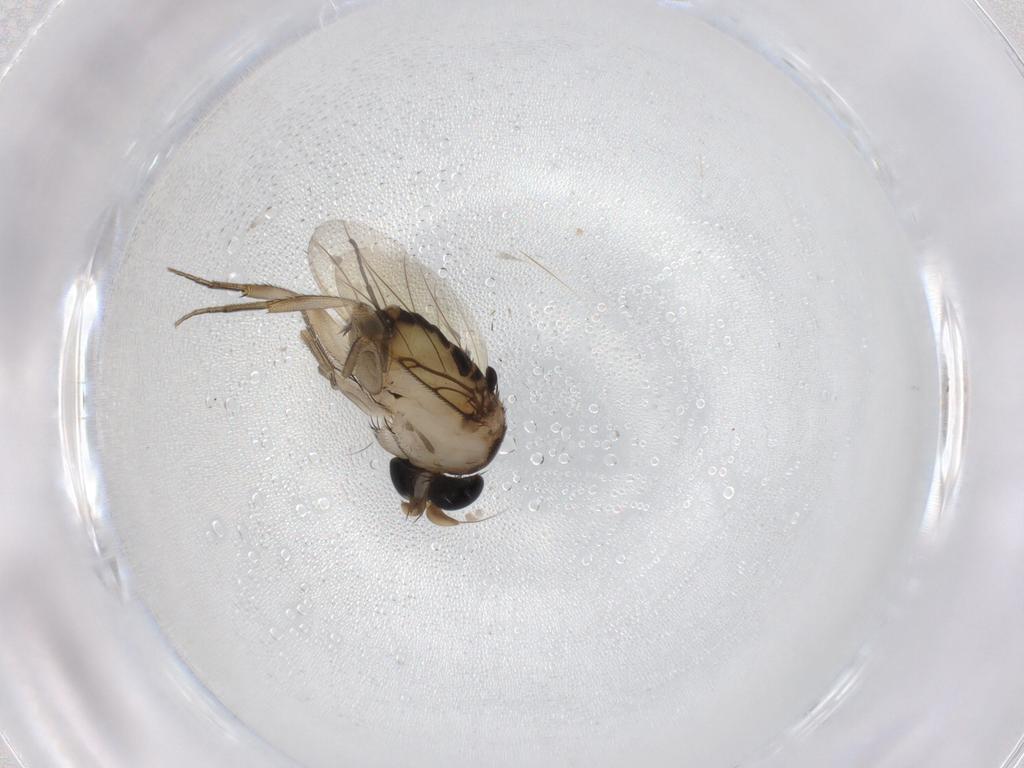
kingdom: Animalia
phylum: Arthropoda
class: Insecta
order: Diptera
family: Phoridae
